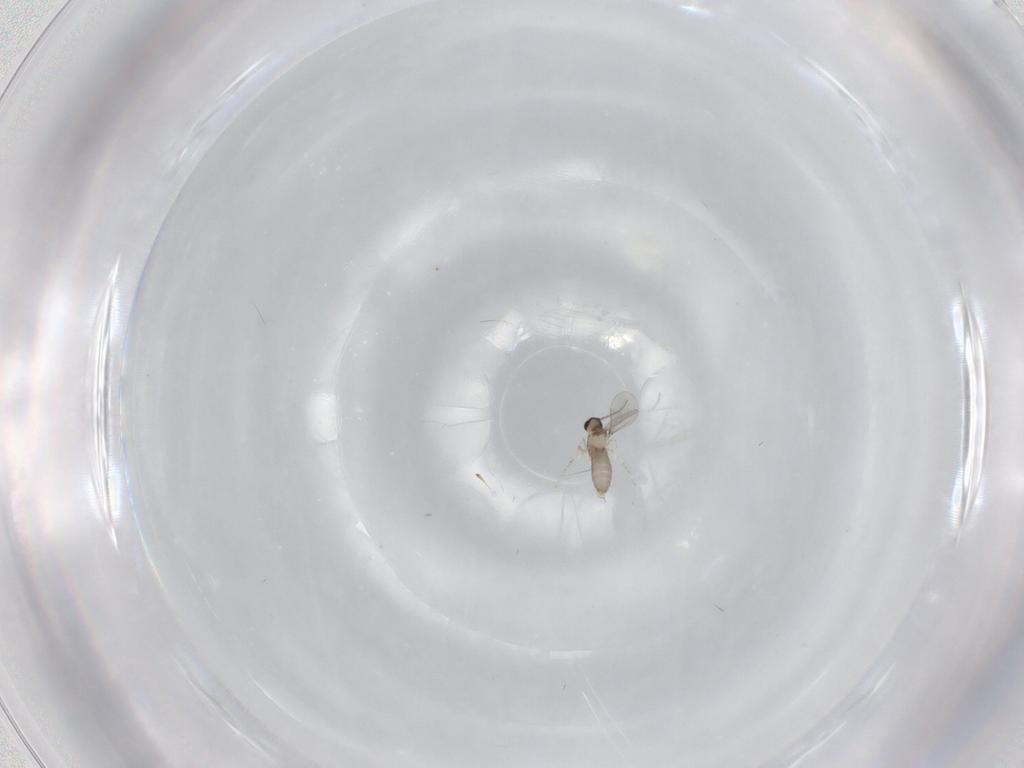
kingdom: Animalia
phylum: Arthropoda
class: Insecta
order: Diptera
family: Cecidomyiidae
